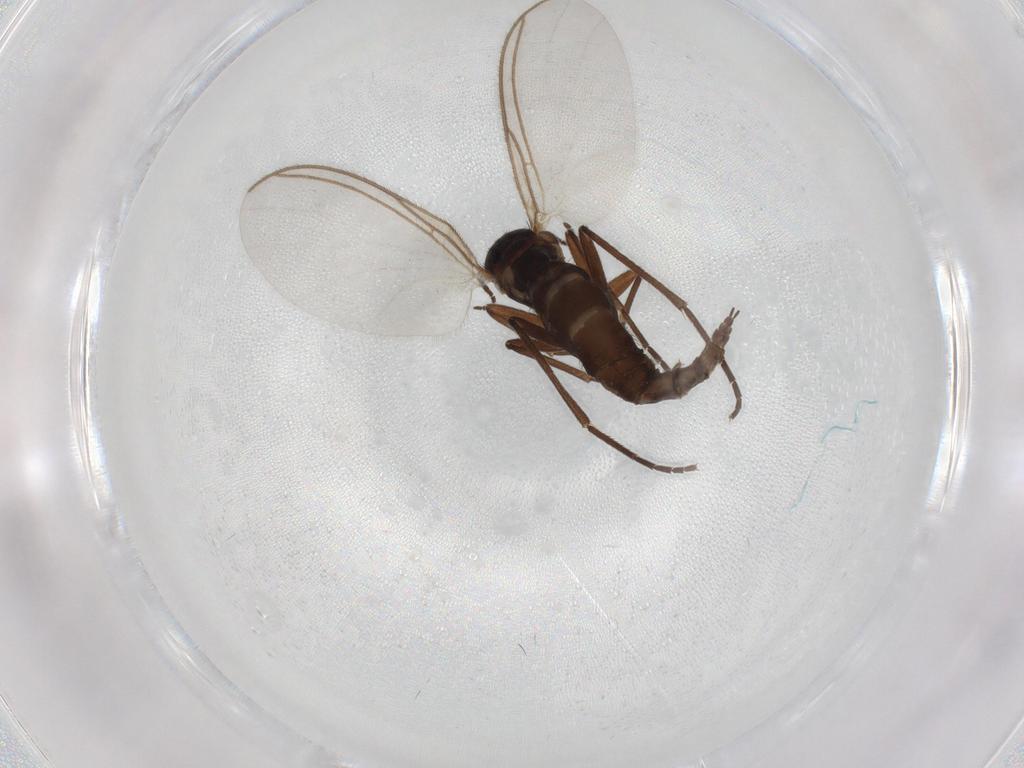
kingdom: Animalia
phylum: Arthropoda
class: Insecta
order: Diptera
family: Sciaridae
